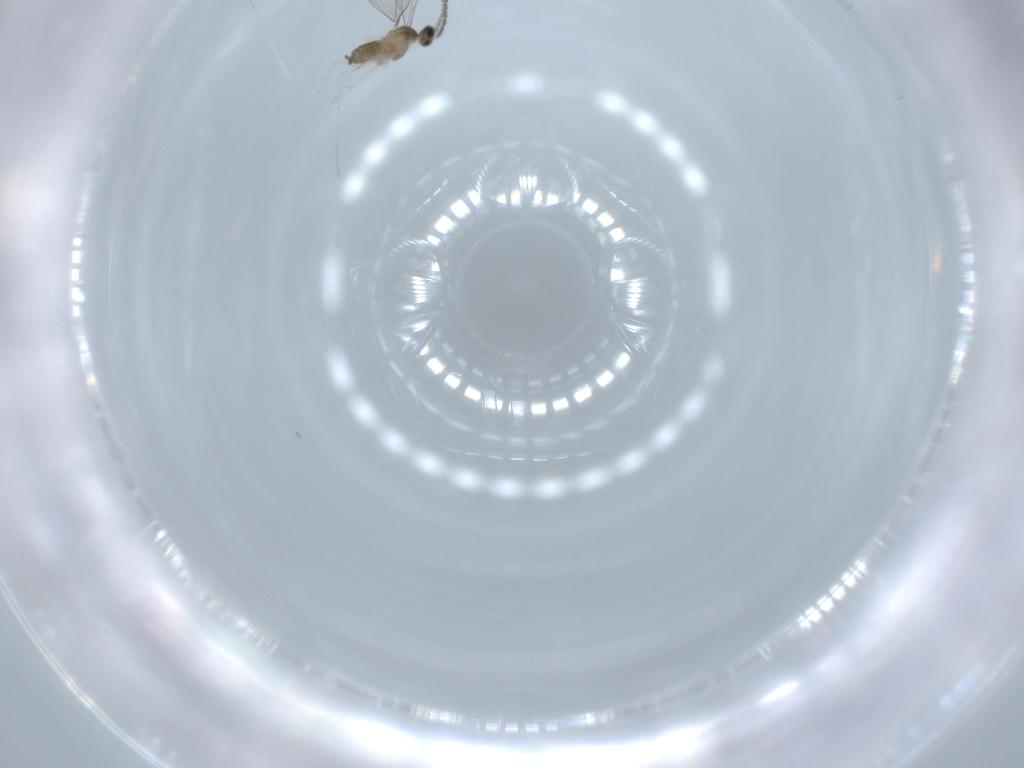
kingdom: Animalia
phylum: Arthropoda
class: Insecta
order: Diptera
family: Cecidomyiidae
